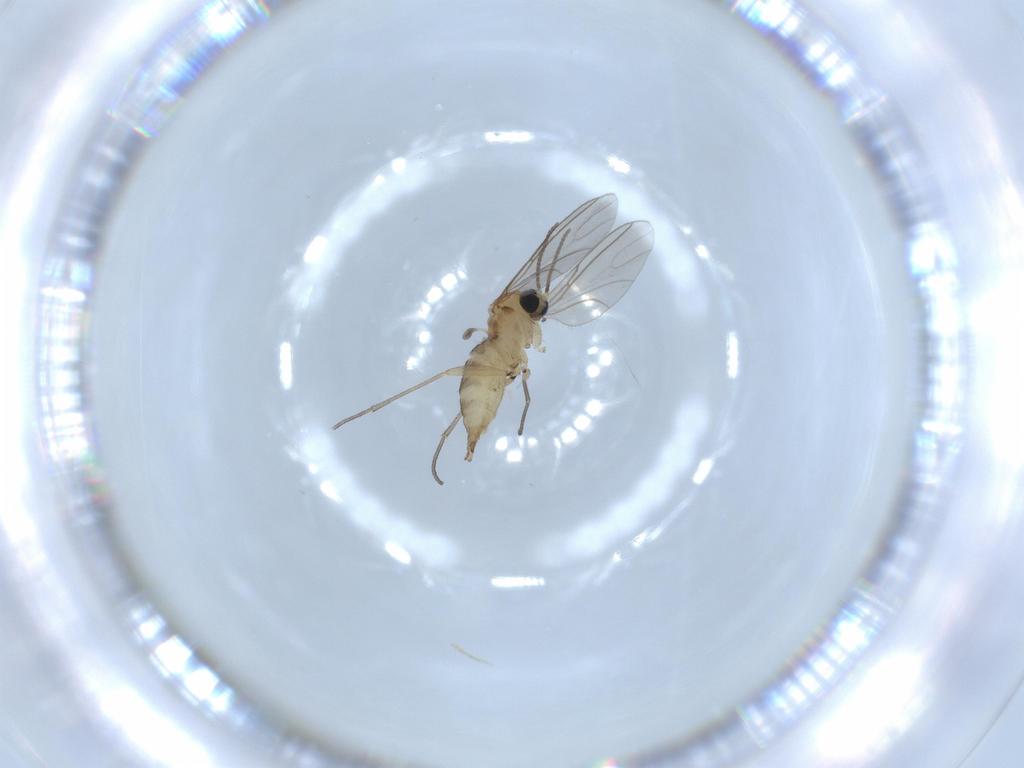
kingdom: Animalia
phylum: Arthropoda
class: Insecta
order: Diptera
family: Sciaridae
